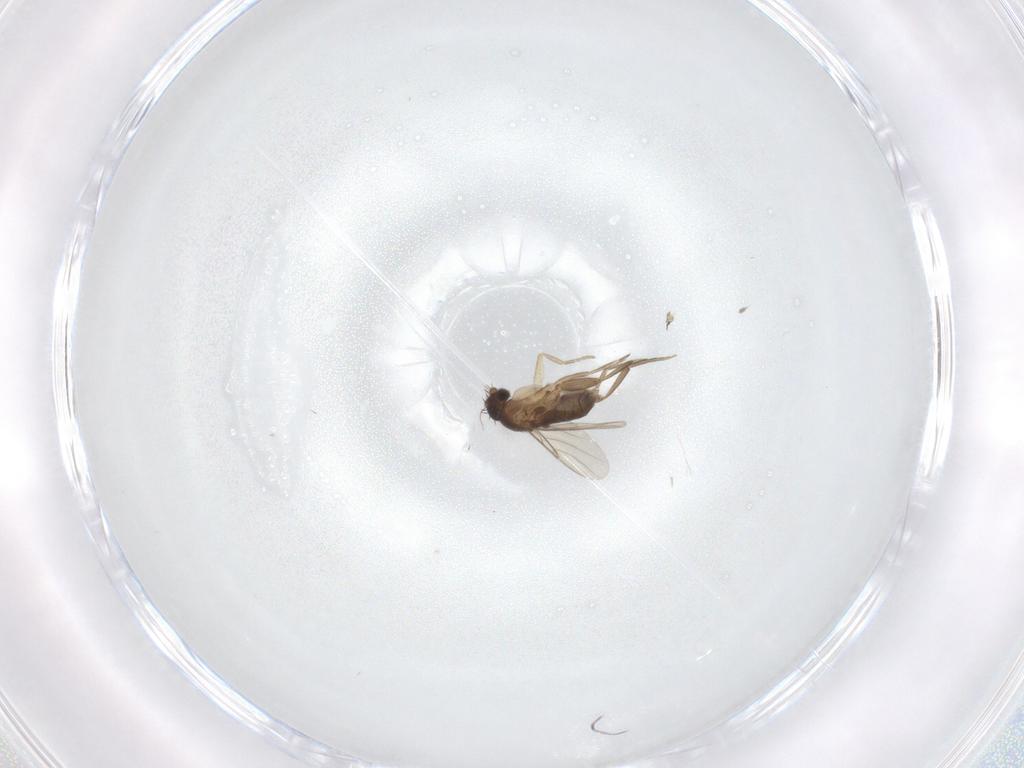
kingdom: Animalia
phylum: Arthropoda
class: Insecta
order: Diptera
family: Phoridae
